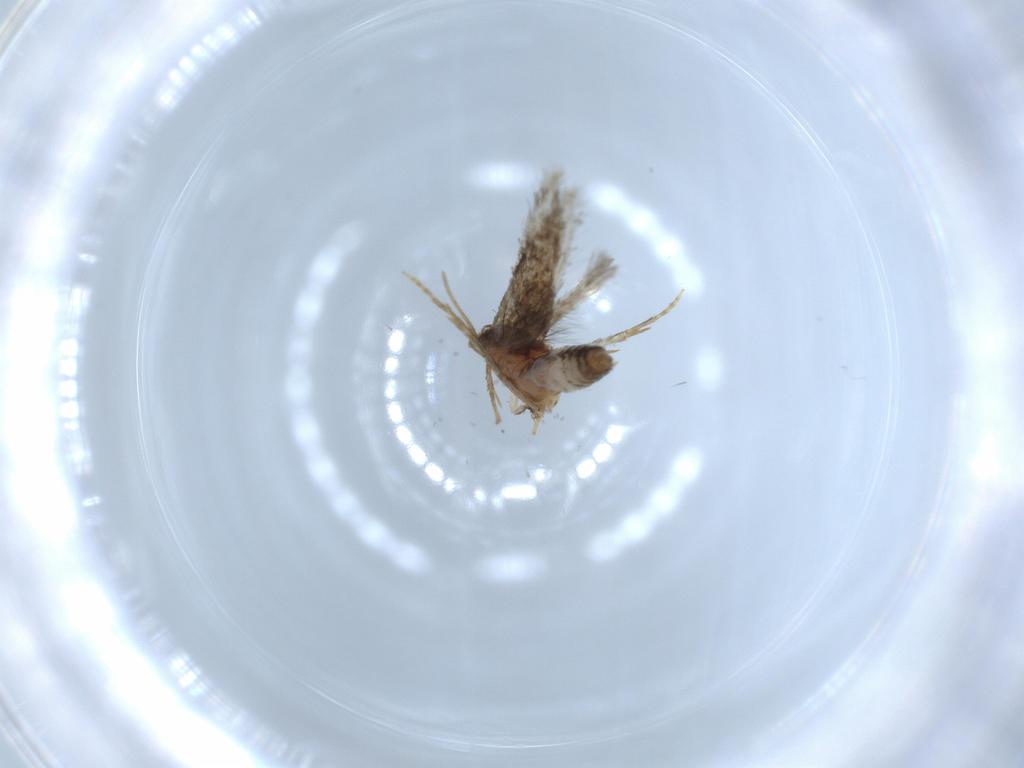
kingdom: Animalia
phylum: Arthropoda
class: Insecta
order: Lepidoptera
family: Nepticulidae
